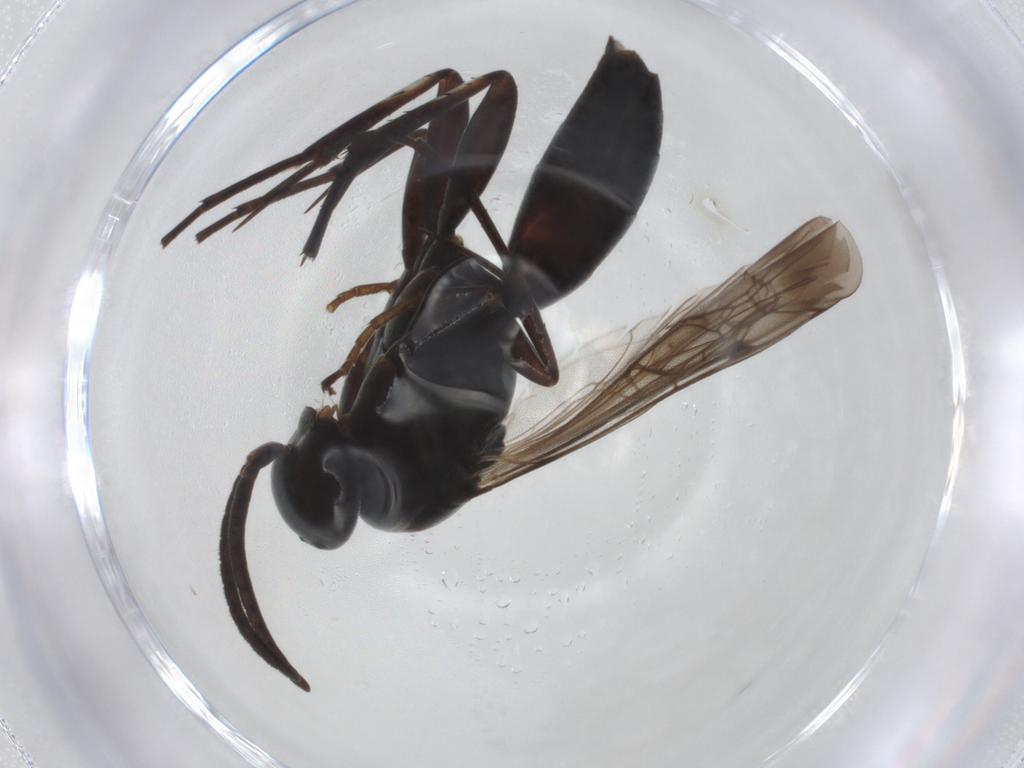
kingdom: Animalia
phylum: Arthropoda
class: Insecta
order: Hymenoptera
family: Pompilidae
